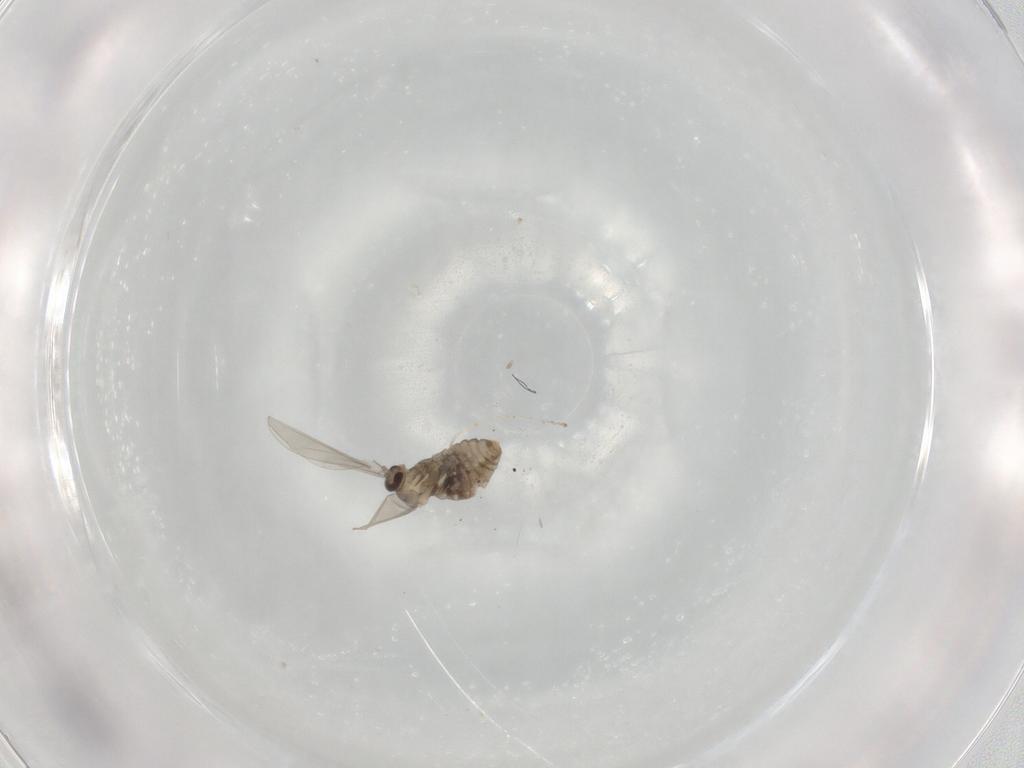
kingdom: Animalia
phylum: Arthropoda
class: Insecta
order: Diptera
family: Cecidomyiidae
